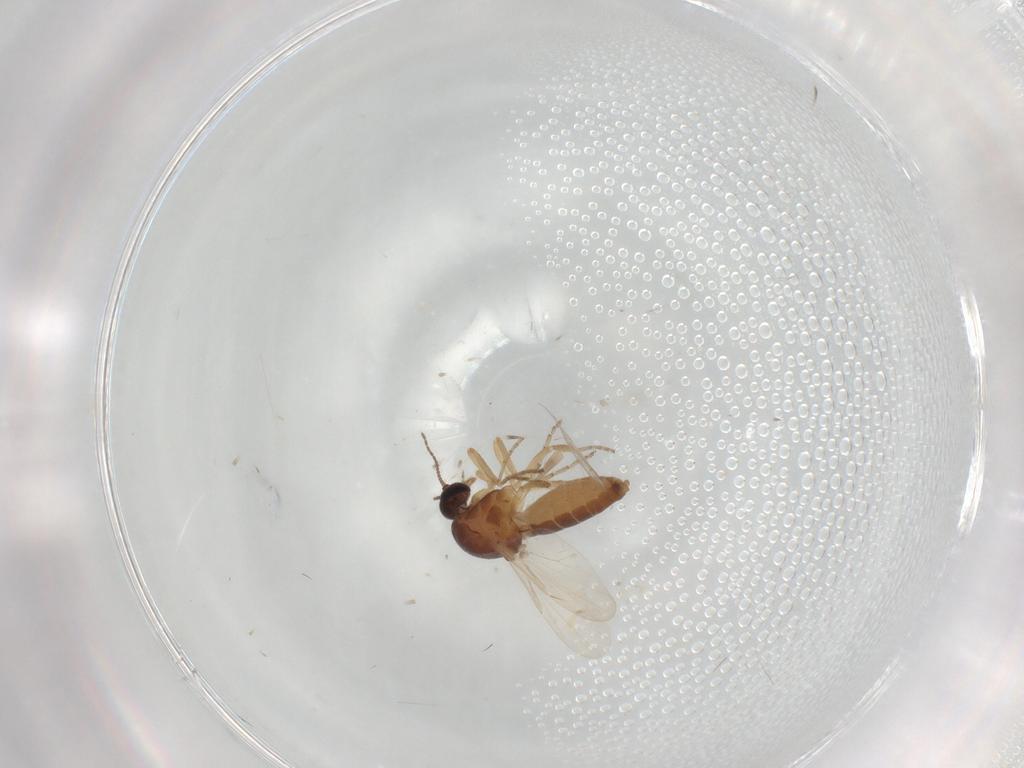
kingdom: Animalia
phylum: Arthropoda
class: Insecta
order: Diptera
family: Ceratopogonidae
